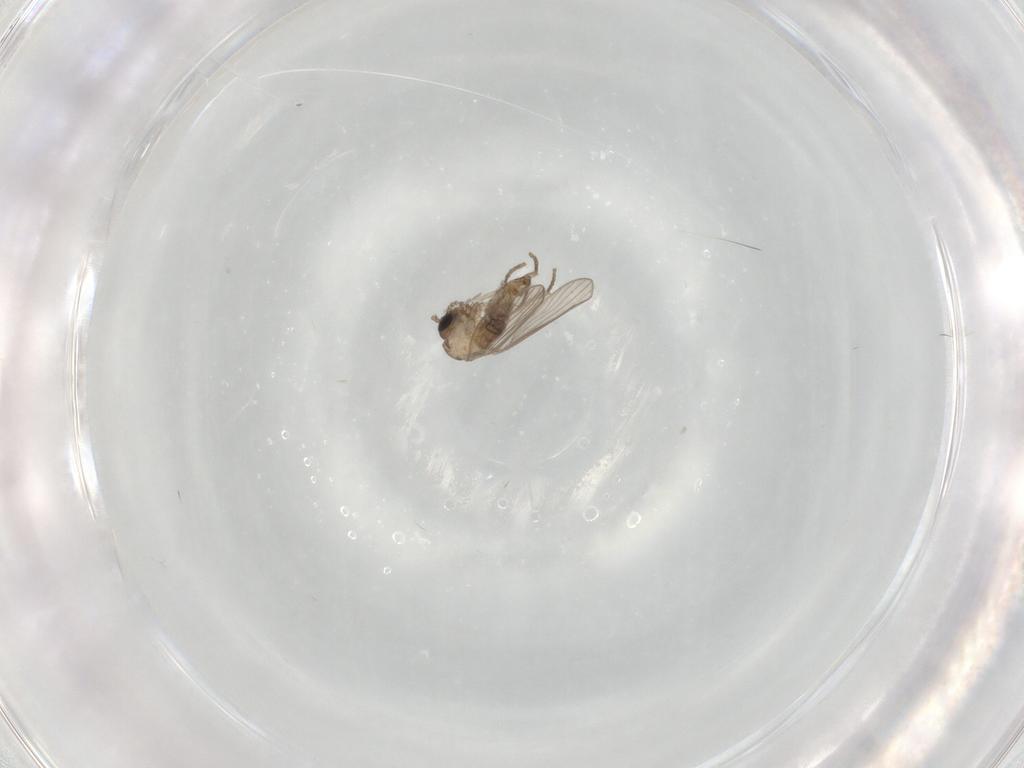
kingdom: Animalia
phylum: Arthropoda
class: Insecta
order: Diptera
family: Psychodidae
